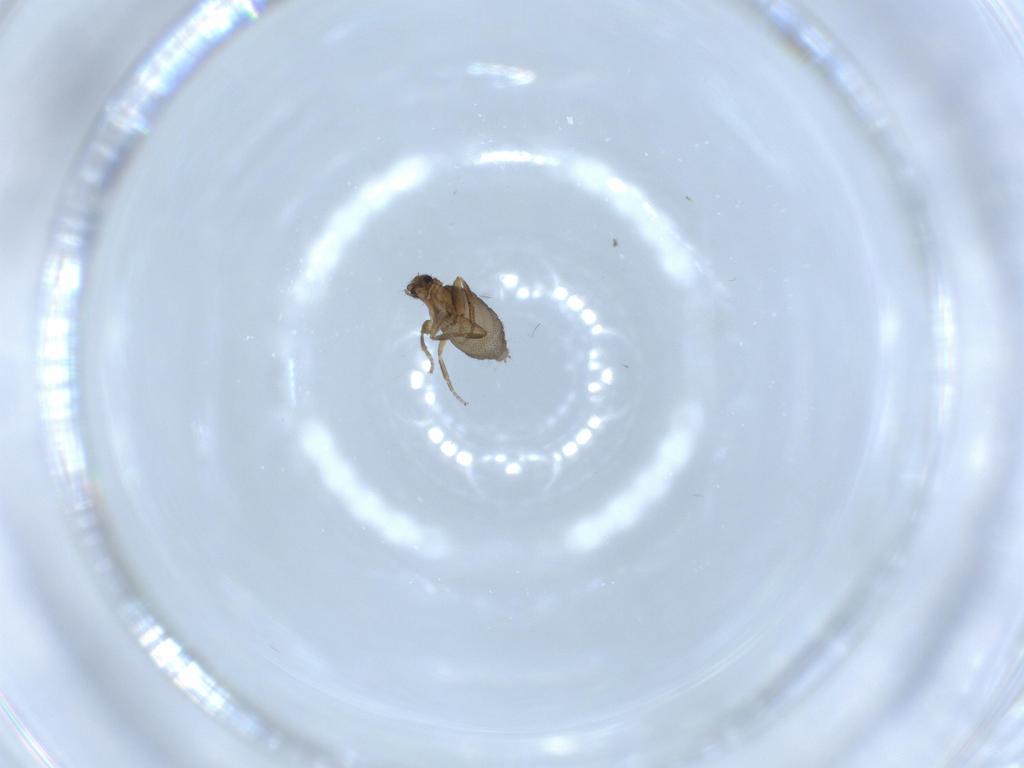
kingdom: Animalia
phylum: Arthropoda
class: Insecta
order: Diptera
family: Phoridae
